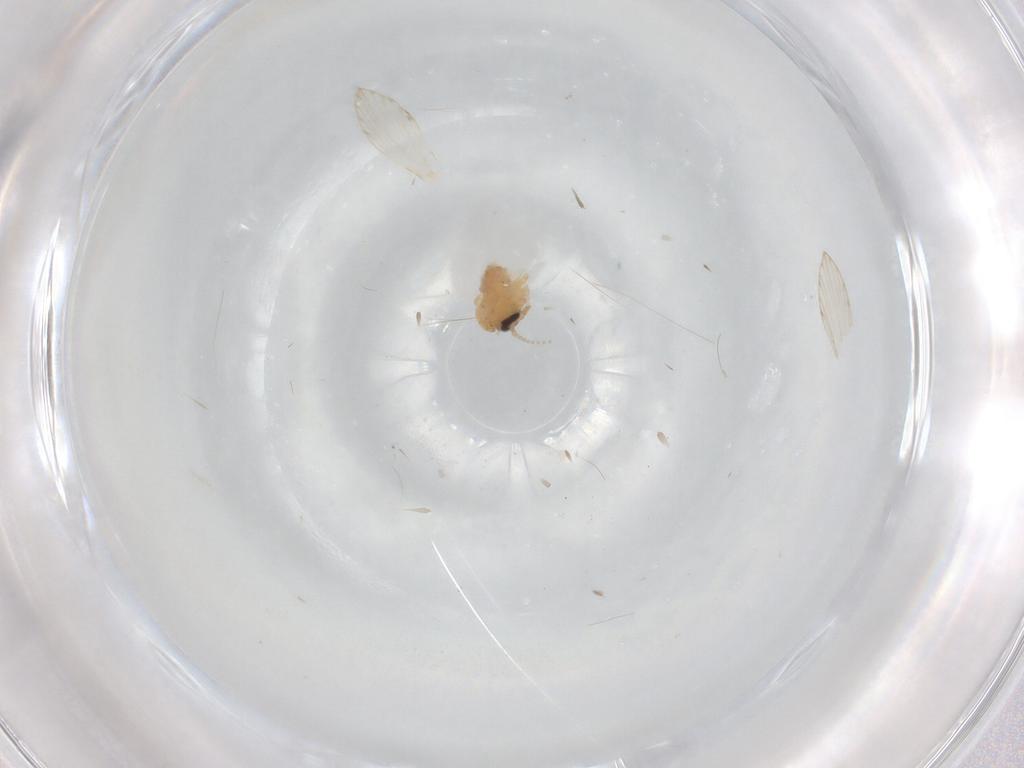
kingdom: Animalia
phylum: Arthropoda
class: Insecta
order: Diptera
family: Psychodidae
